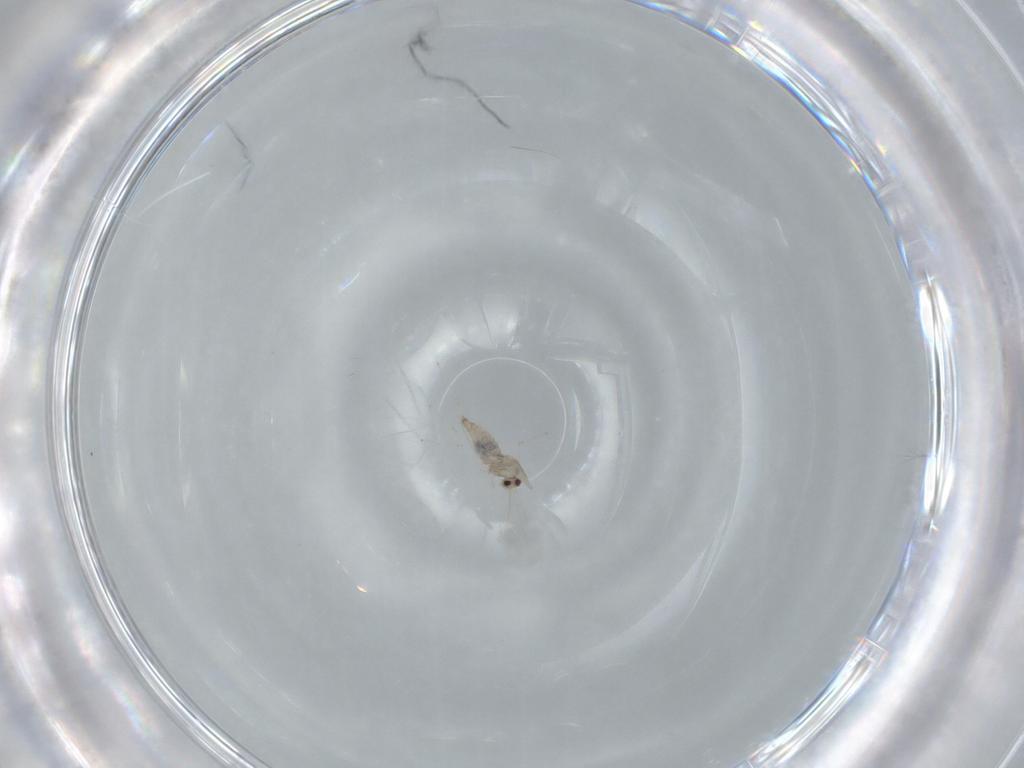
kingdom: Animalia
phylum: Arthropoda
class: Insecta
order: Diptera
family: Cecidomyiidae
